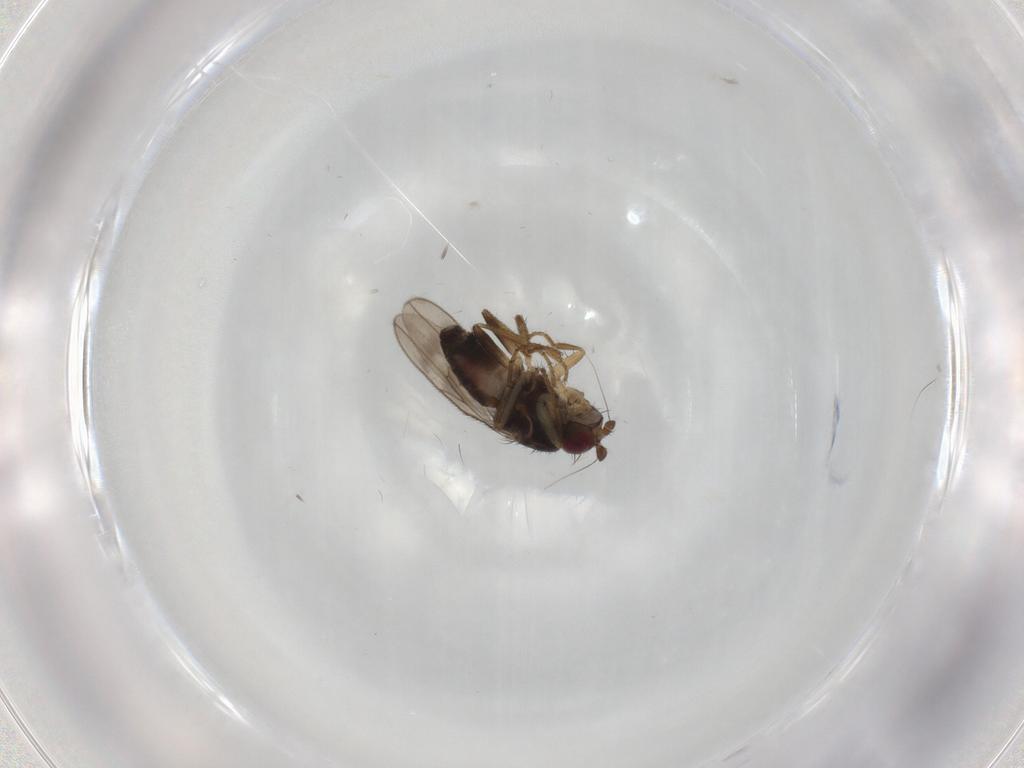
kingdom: Animalia
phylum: Arthropoda
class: Insecta
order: Diptera
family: Sphaeroceridae
